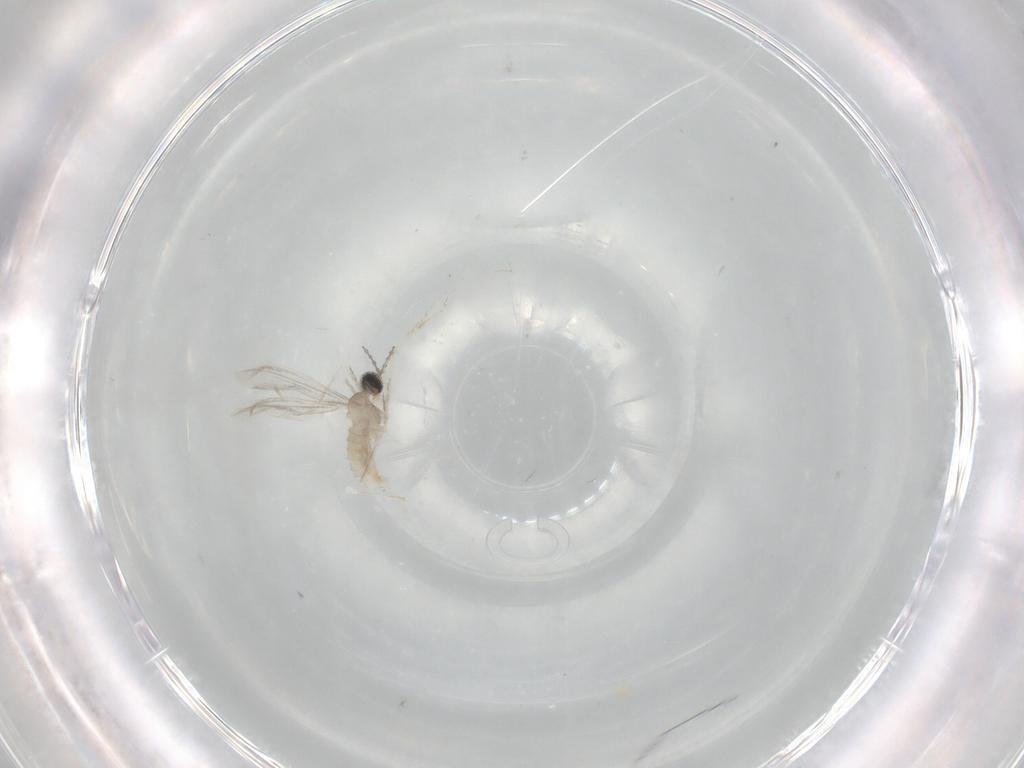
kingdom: Animalia
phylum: Arthropoda
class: Insecta
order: Diptera
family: Cecidomyiidae
